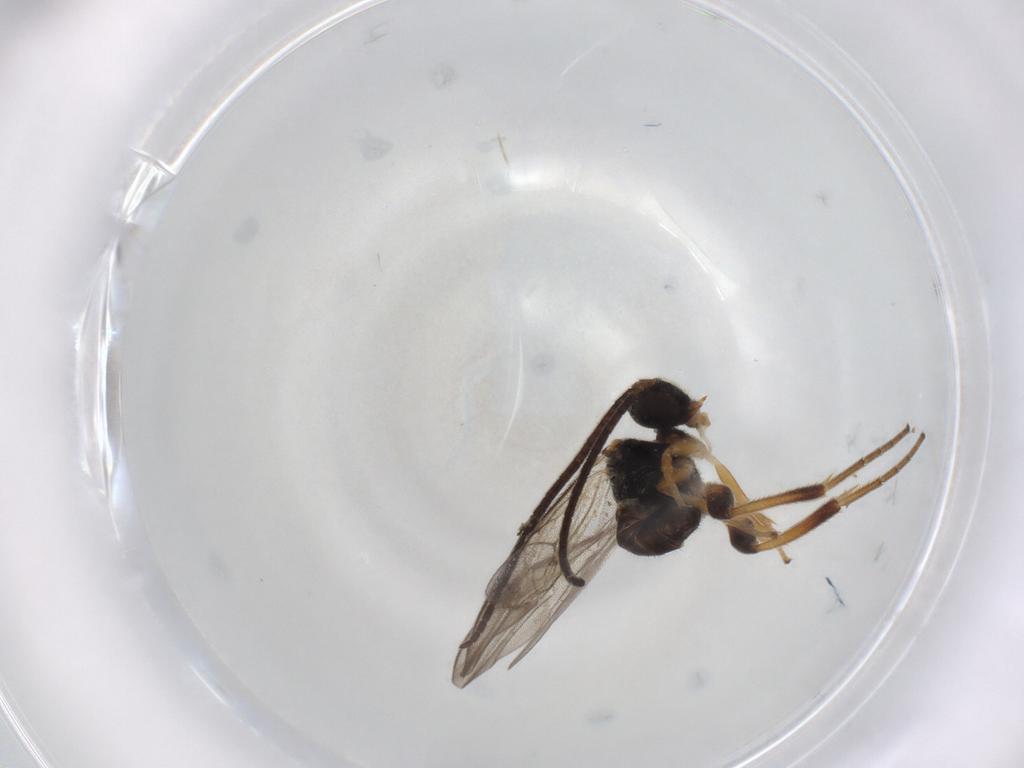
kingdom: Animalia
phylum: Arthropoda
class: Insecta
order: Hymenoptera
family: Braconidae
